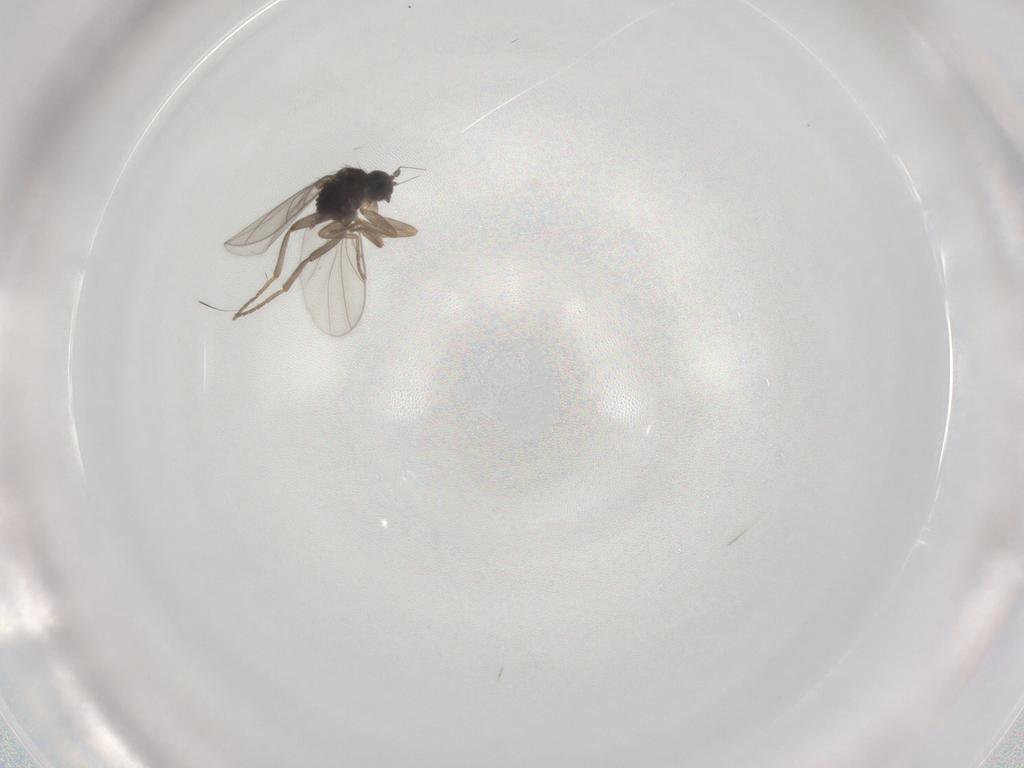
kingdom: Animalia
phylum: Arthropoda
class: Insecta
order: Diptera
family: Hybotidae
